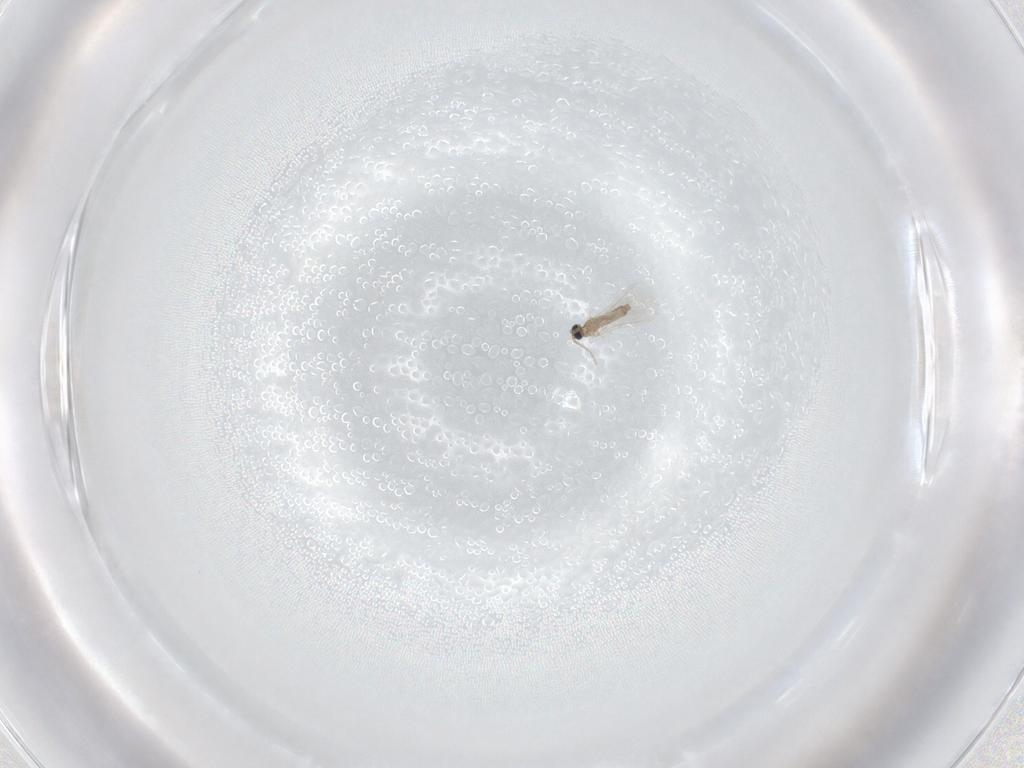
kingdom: Animalia
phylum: Arthropoda
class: Insecta
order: Diptera
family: Cecidomyiidae
